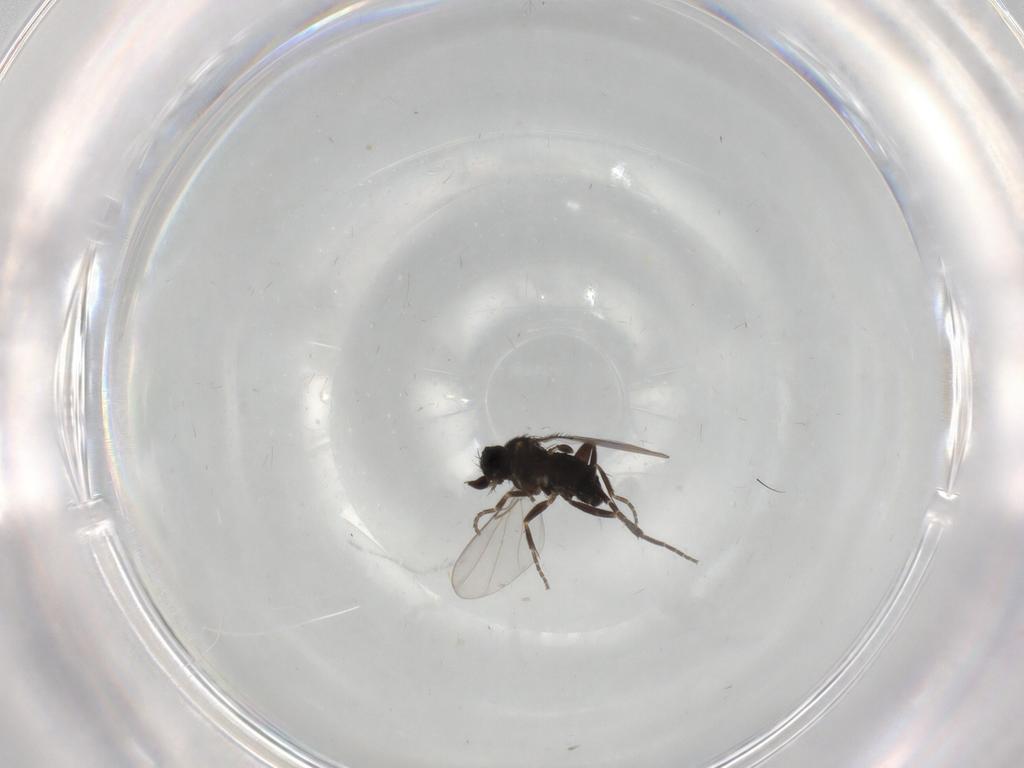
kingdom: Animalia
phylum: Arthropoda
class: Insecta
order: Diptera
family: Phoridae
